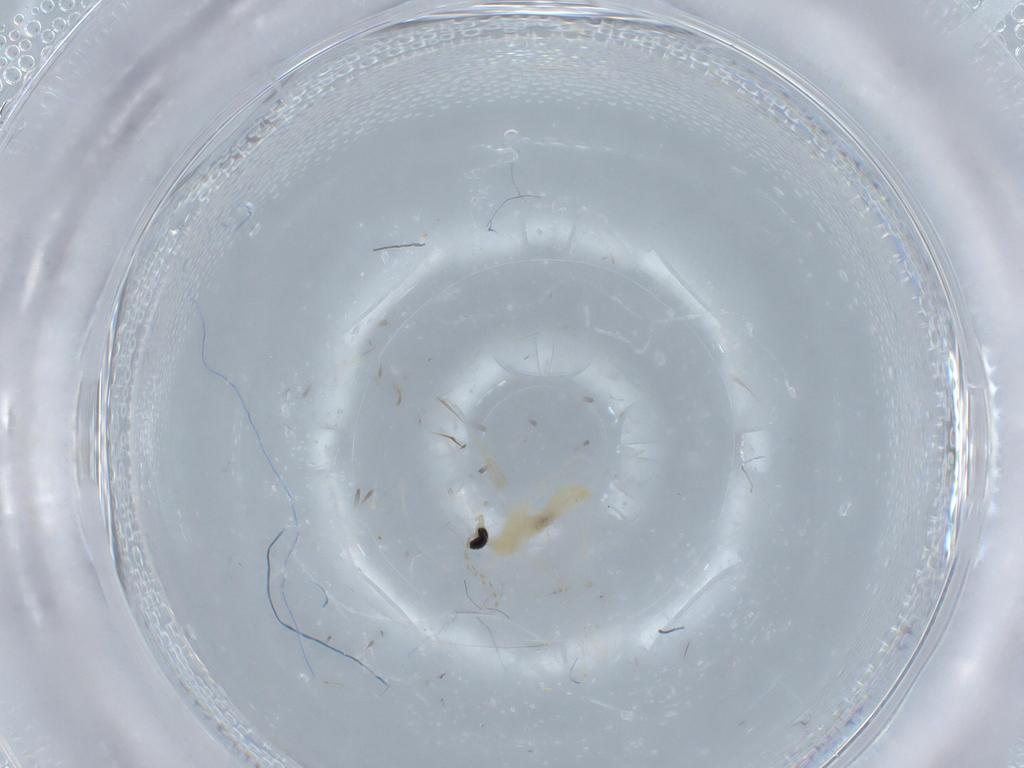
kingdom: Animalia
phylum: Arthropoda
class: Insecta
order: Diptera
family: Cecidomyiidae
